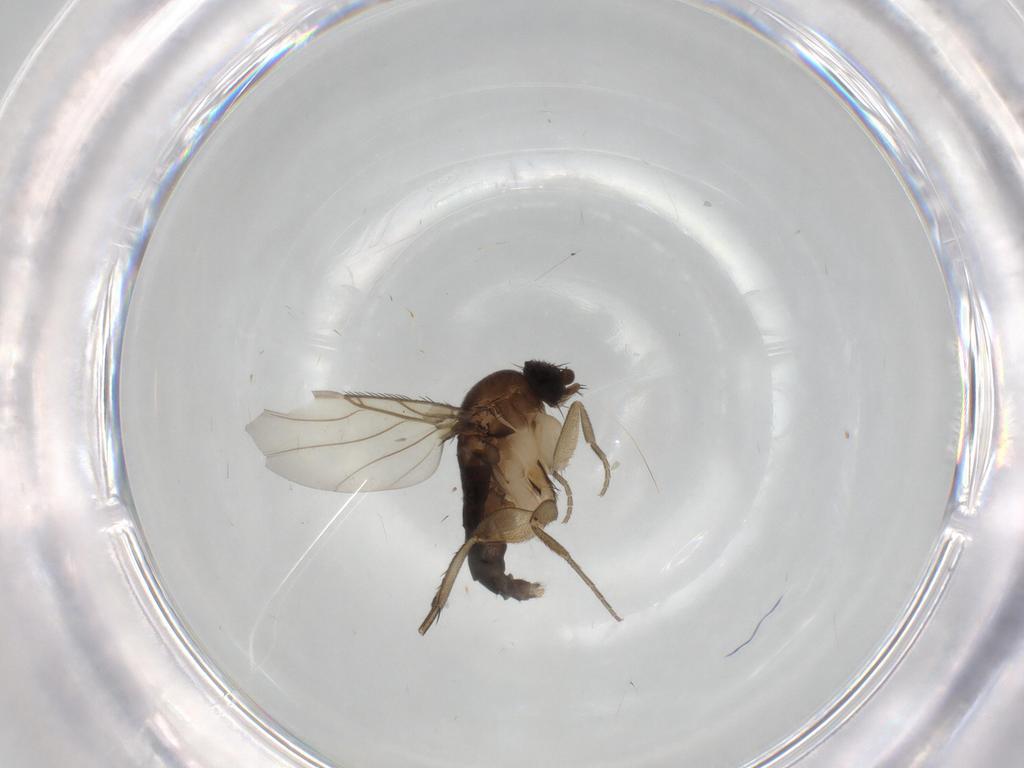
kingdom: Animalia
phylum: Arthropoda
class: Insecta
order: Diptera
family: Phoridae
